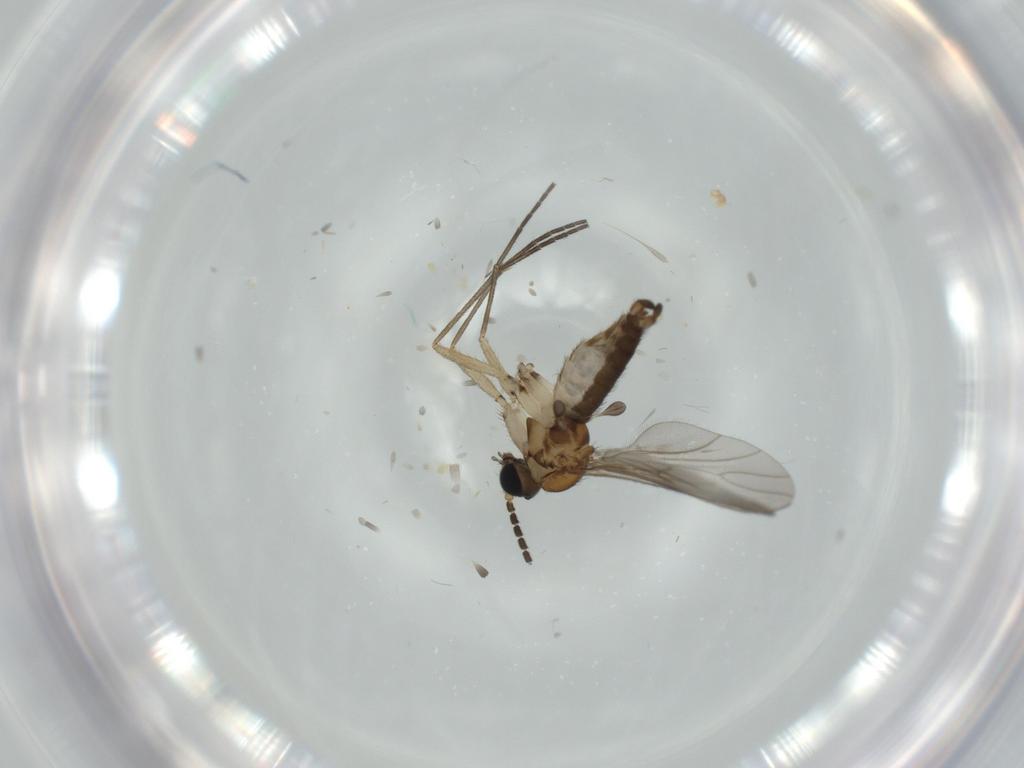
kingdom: Animalia
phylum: Arthropoda
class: Insecta
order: Diptera
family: Sciaridae
